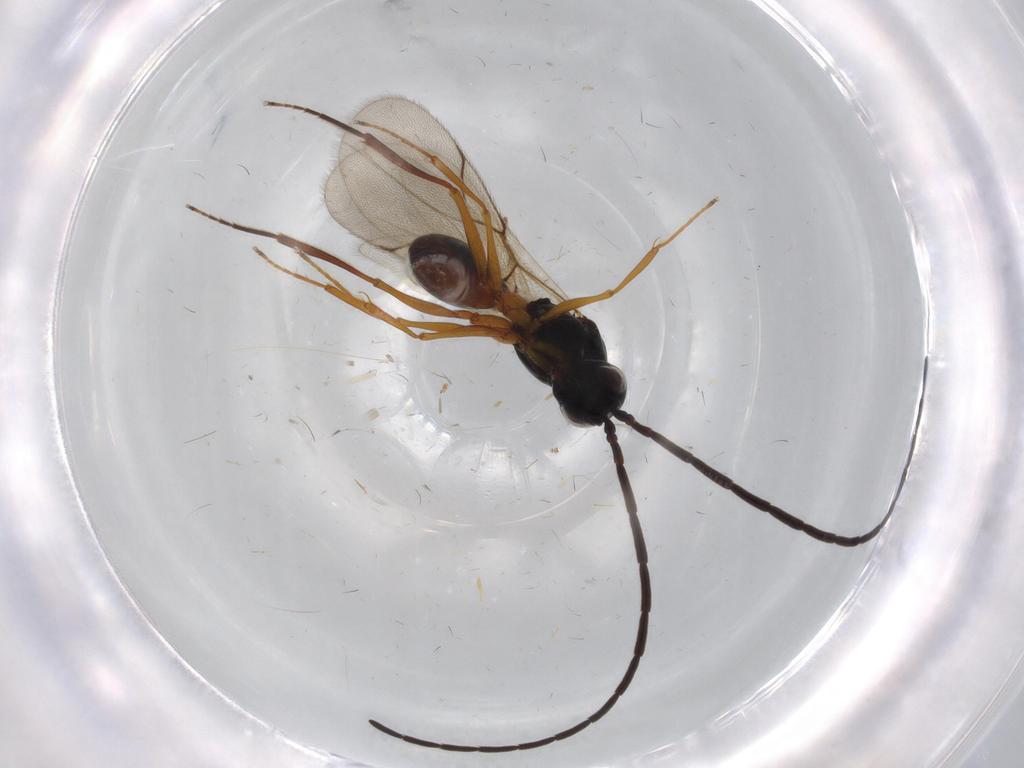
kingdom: Animalia
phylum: Arthropoda
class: Insecta
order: Hymenoptera
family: Figitidae
